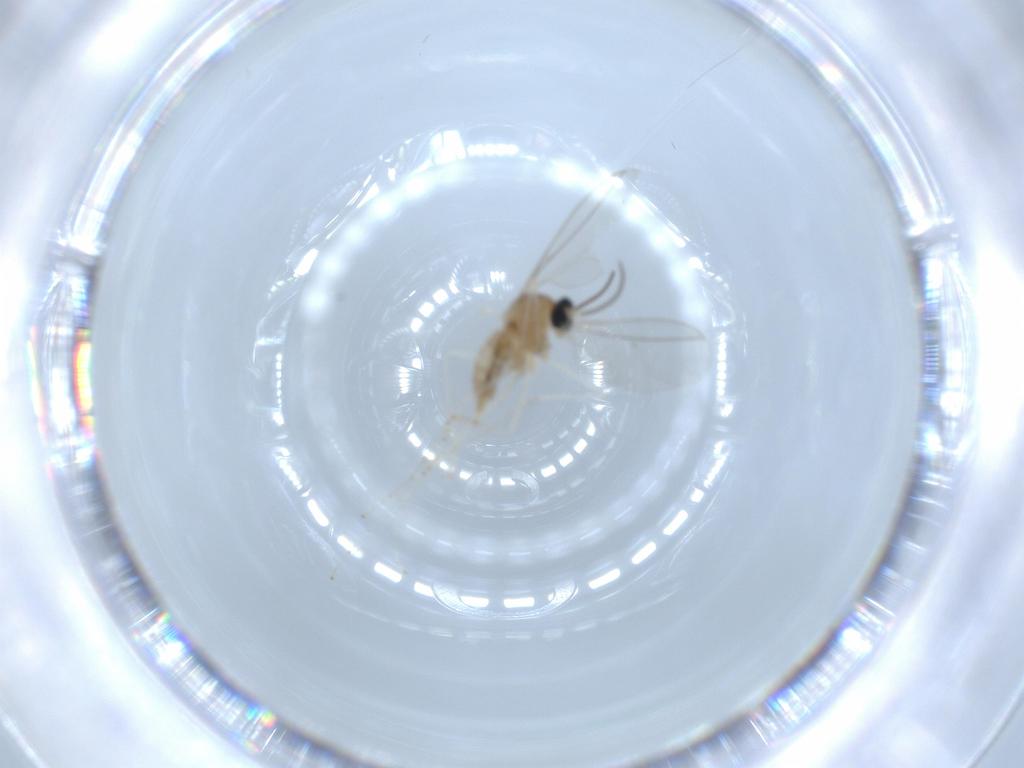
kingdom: Animalia
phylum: Arthropoda
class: Insecta
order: Diptera
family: Cecidomyiidae
